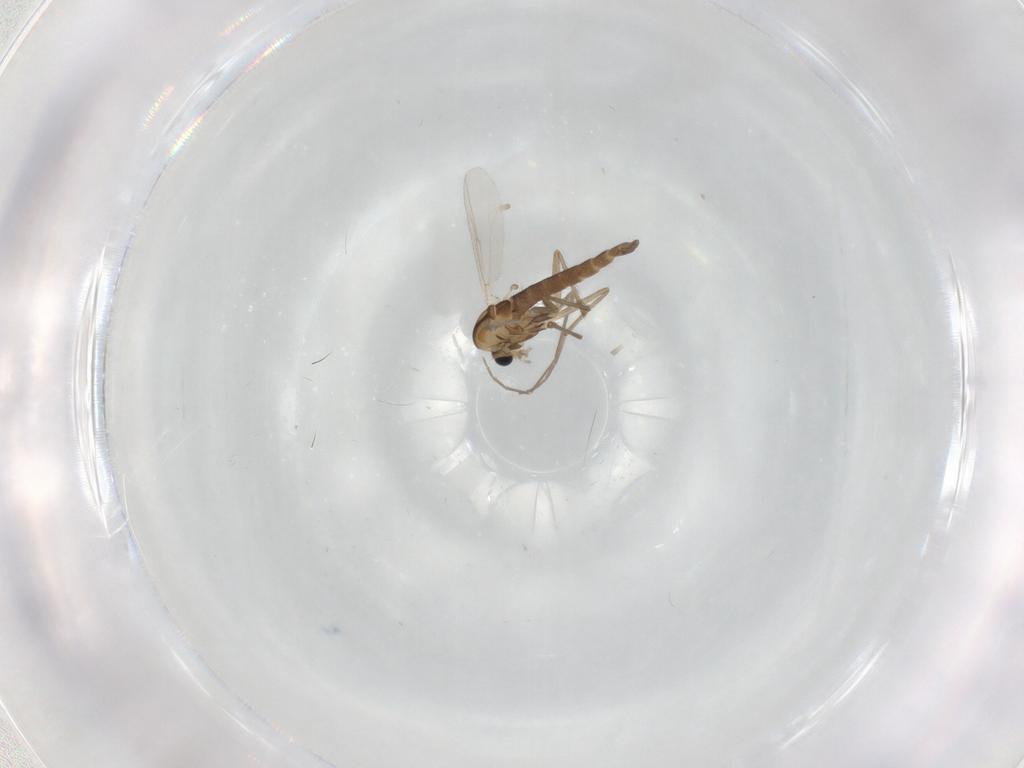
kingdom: Animalia
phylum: Arthropoda
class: Insecta
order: Diptera
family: Chironomidae
